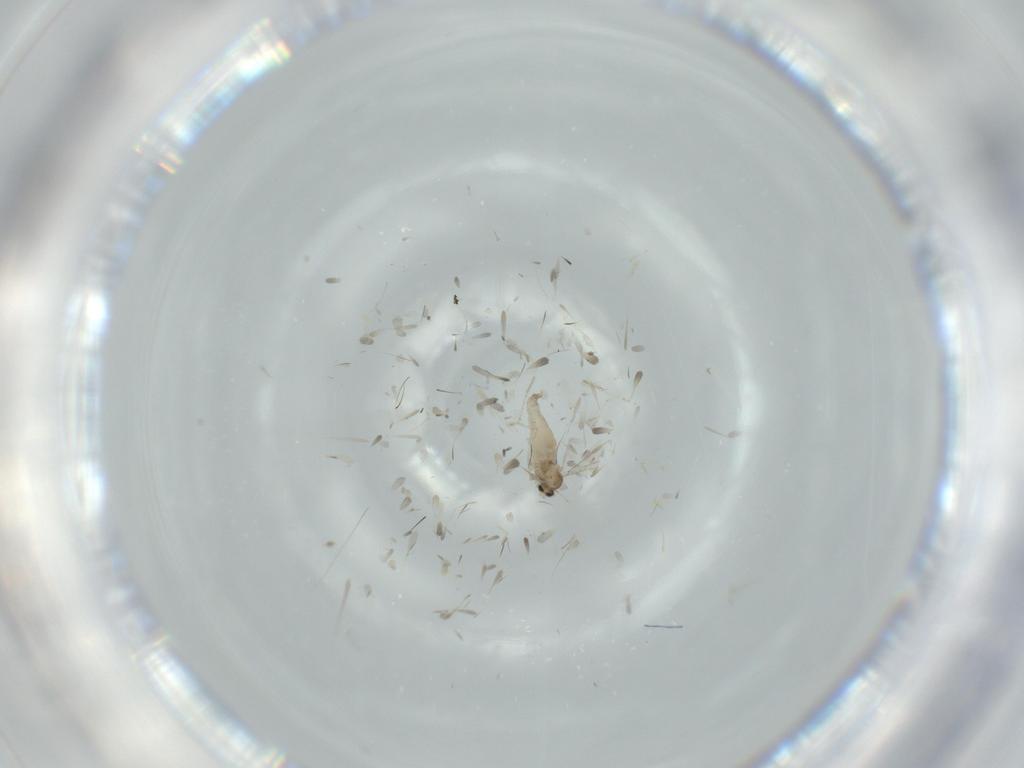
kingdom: Animalia
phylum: Arthropoda
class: Insecta
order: Diptera
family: Cecidomyiidae
